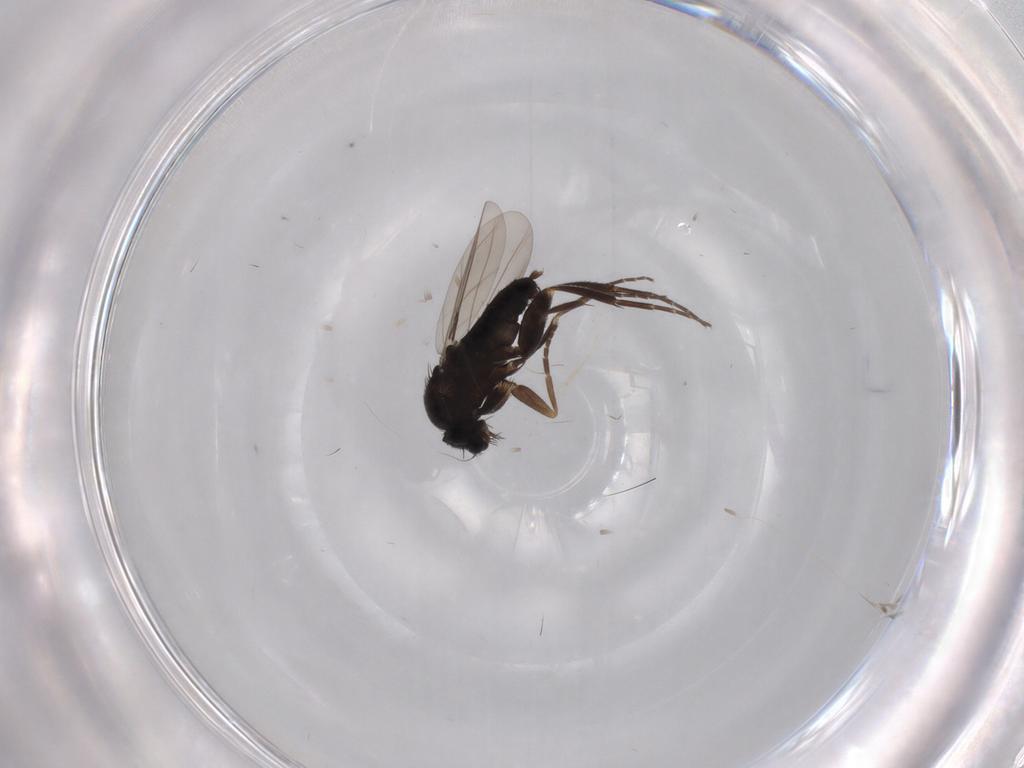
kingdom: Animalia
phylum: Arthropoda
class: Insecta
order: Diptera
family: Phoridae
